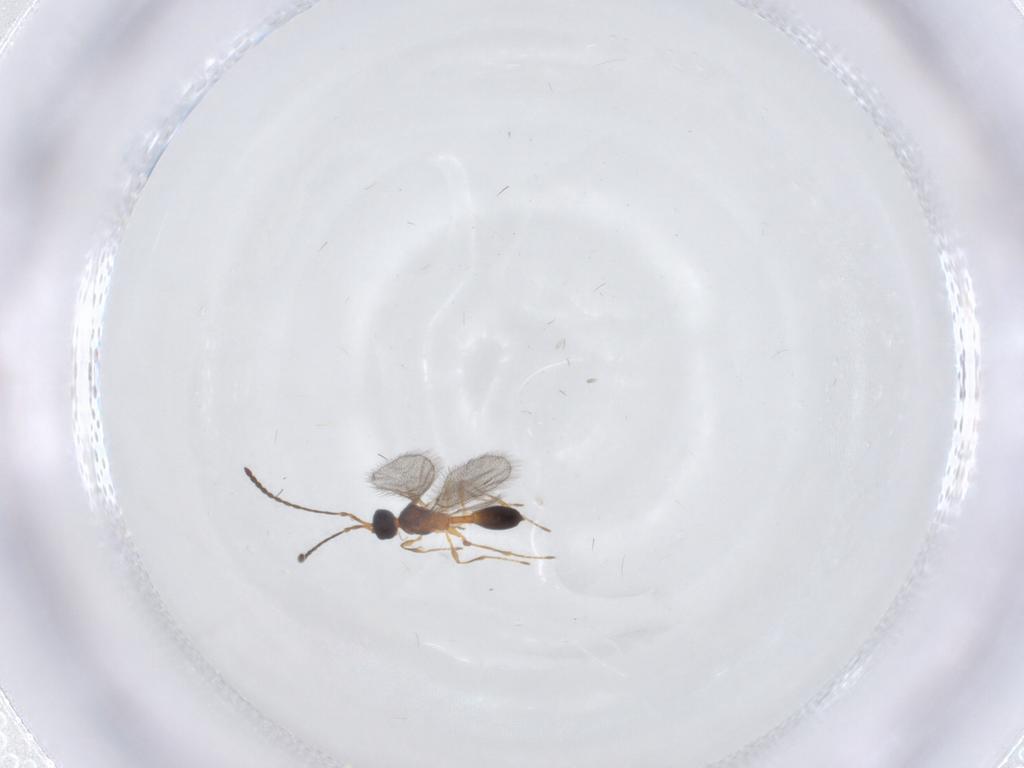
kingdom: Animalia
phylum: Arthropoda
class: Insecta
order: Hymenoptera
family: Diapriidae
